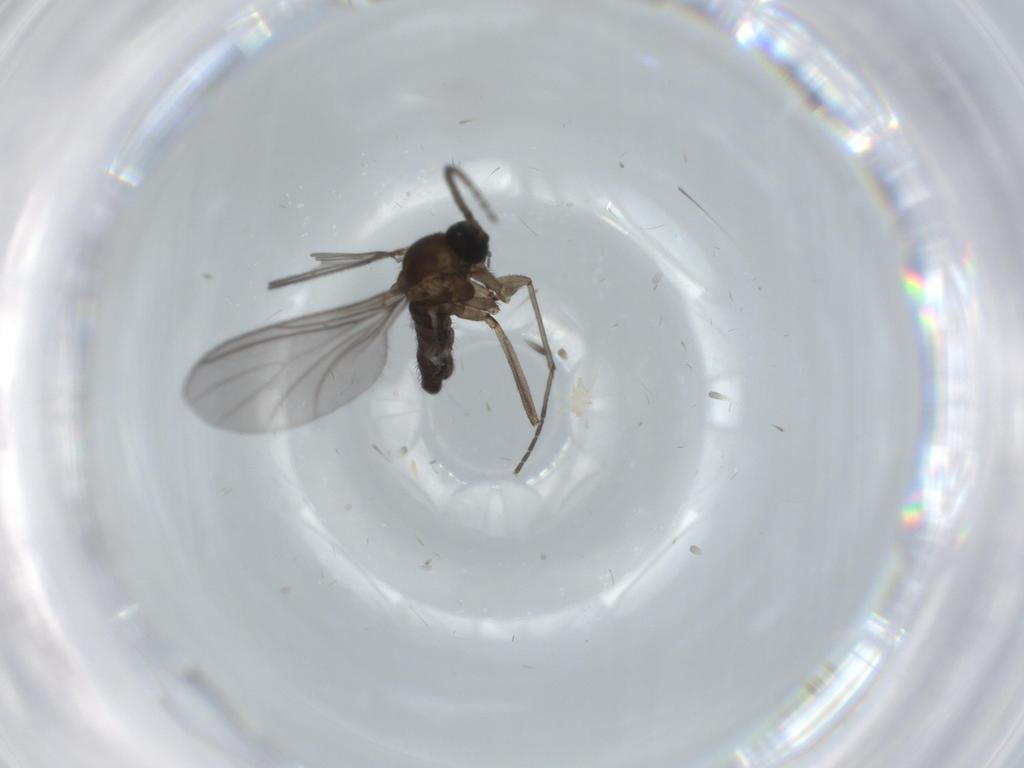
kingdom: Animalia
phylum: Arthropoda
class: Insecta
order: Diptera
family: Sciaridae
